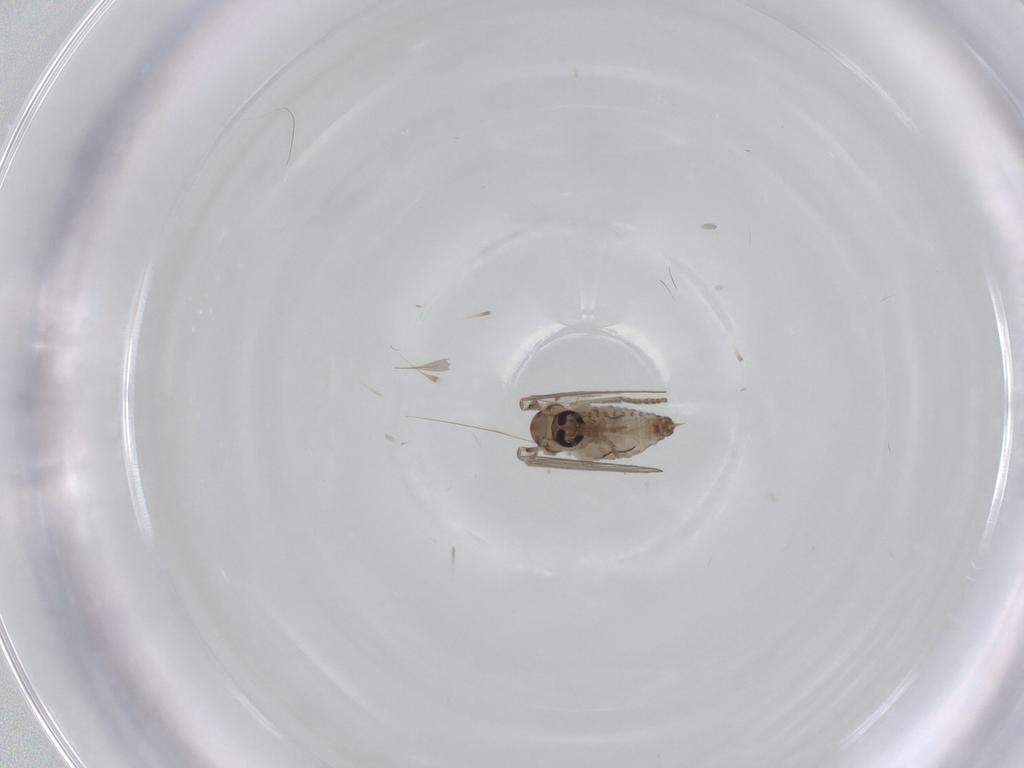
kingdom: Animalia
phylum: Arthropoda
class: Insecta
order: Diptera
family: Psychodidae
